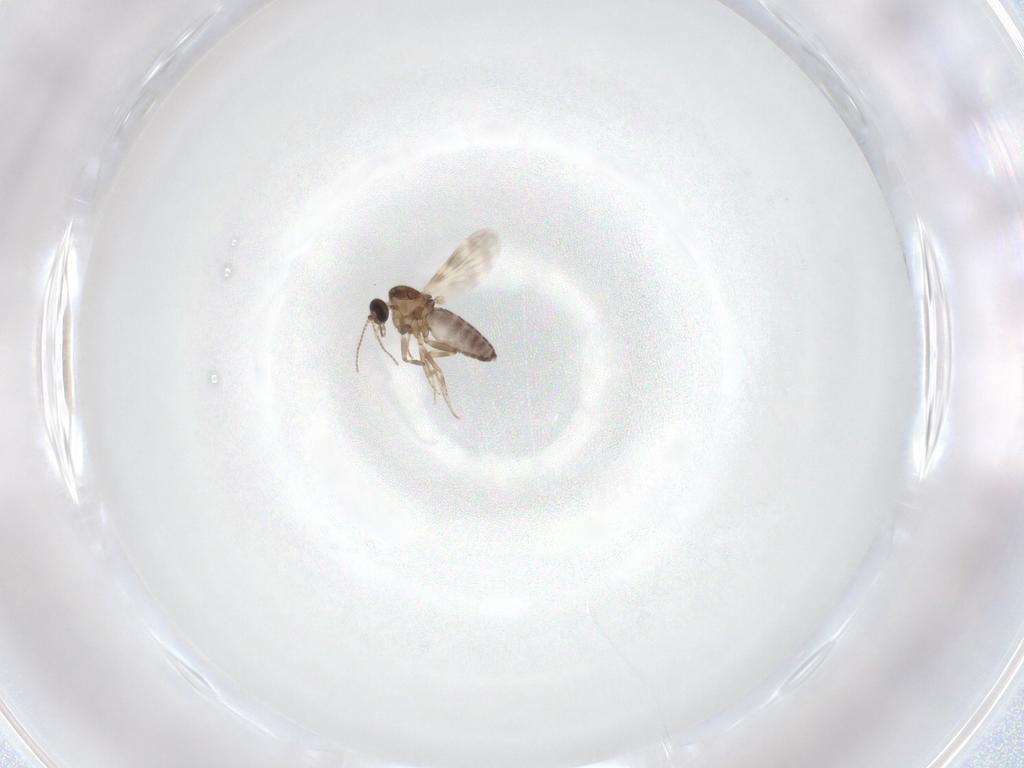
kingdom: Animalia
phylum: Arthropoda
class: Insecta
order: Diptera
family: Ceratopogonidae
